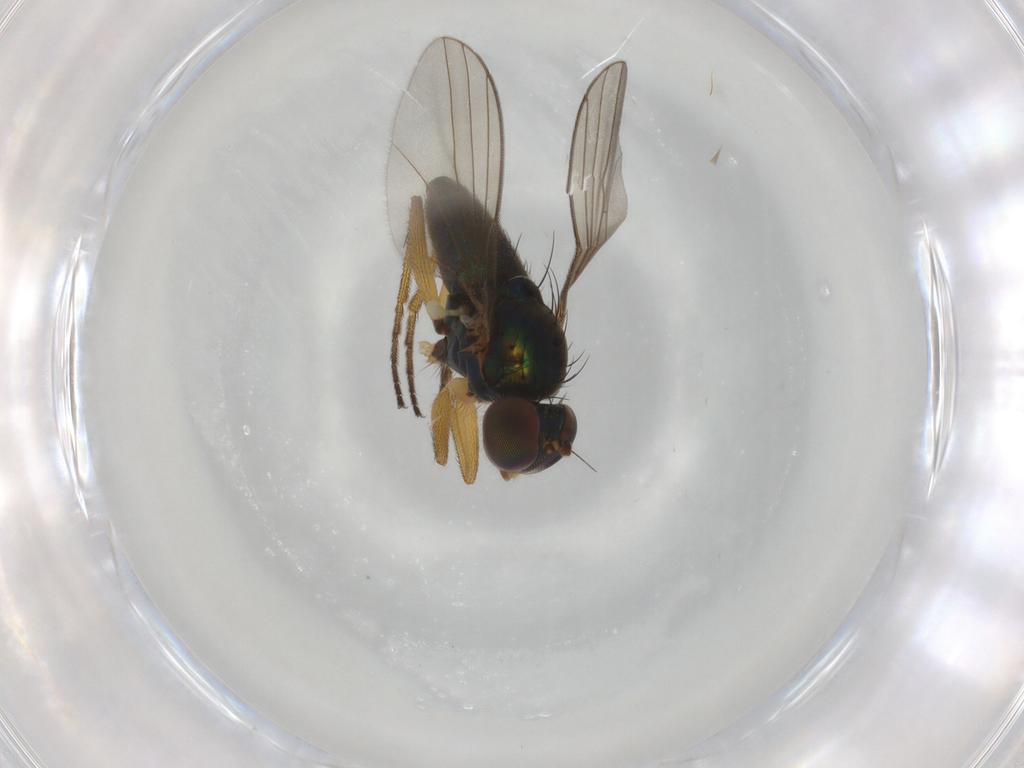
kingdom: Animalia
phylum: Arthropoda
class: Insecta
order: Diptera
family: Dolichopodidae
